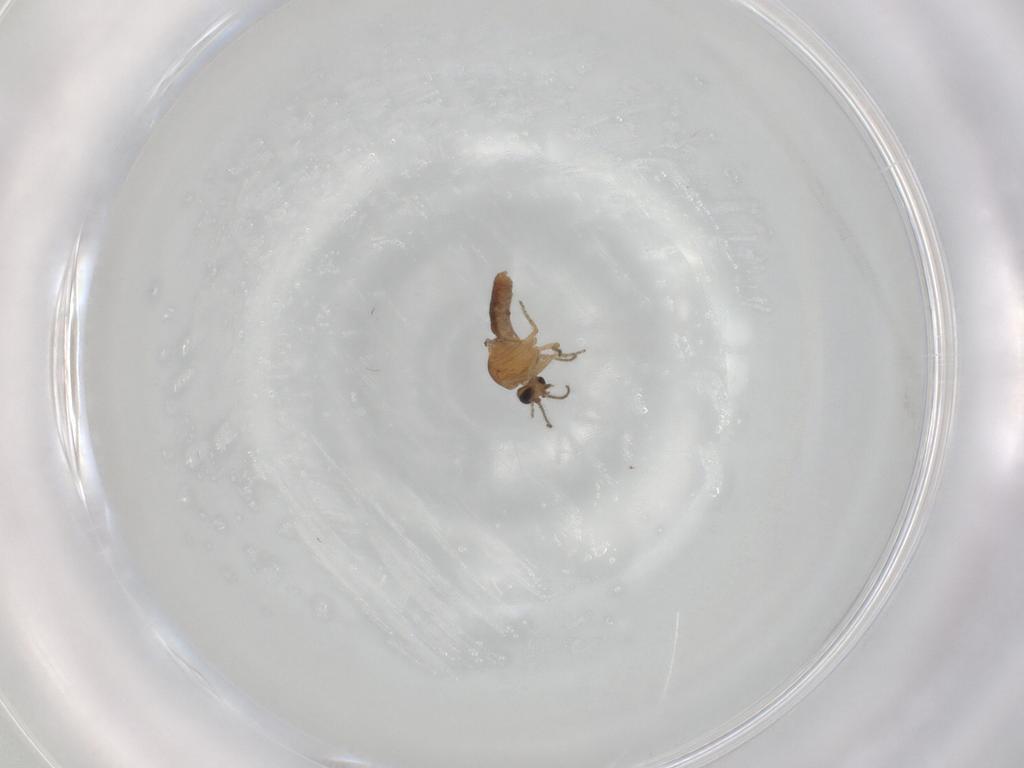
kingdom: Animalia
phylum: Arthropoda
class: Insecta
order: Diptera
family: Ceratopogonidae
